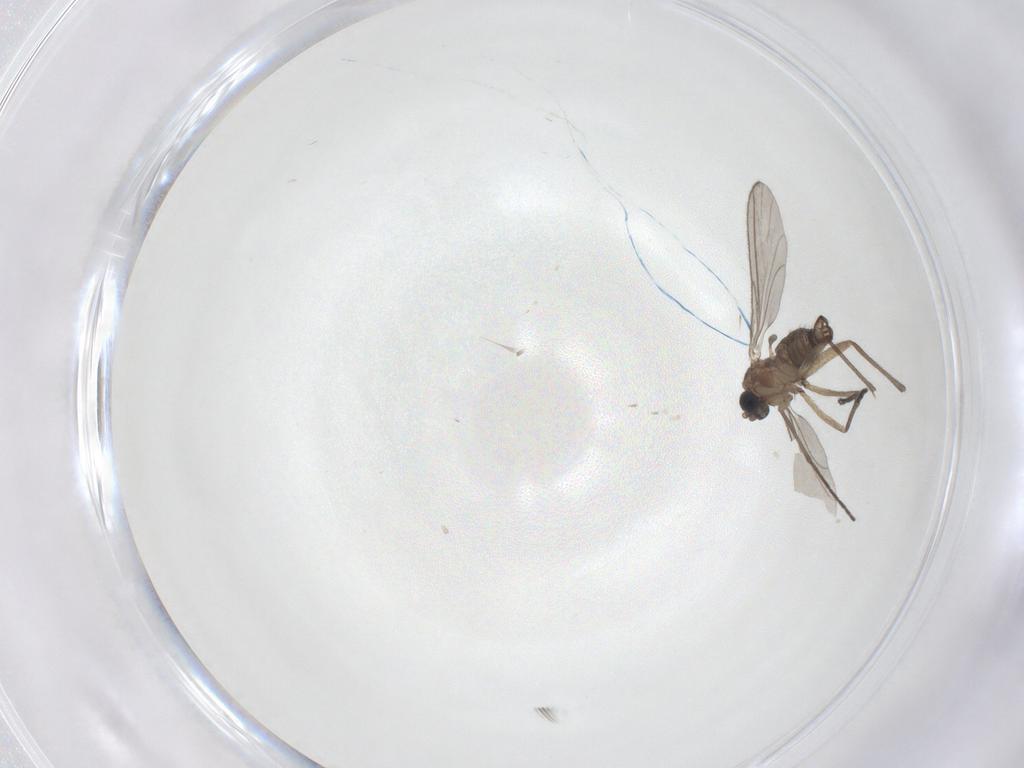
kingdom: Animalia
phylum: Arthropoda
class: Insecta
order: Diptera
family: Sciaridae
